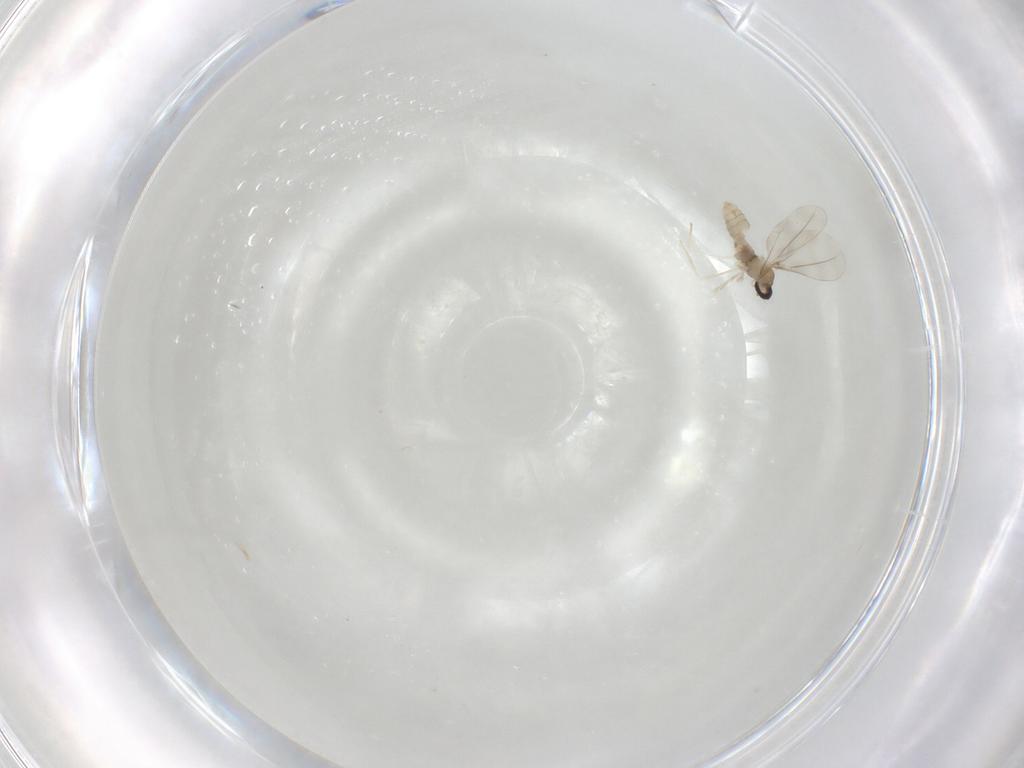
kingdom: Animalia
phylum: Arthropoda
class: Insecta
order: Diptera
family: Cecidomyiidae
